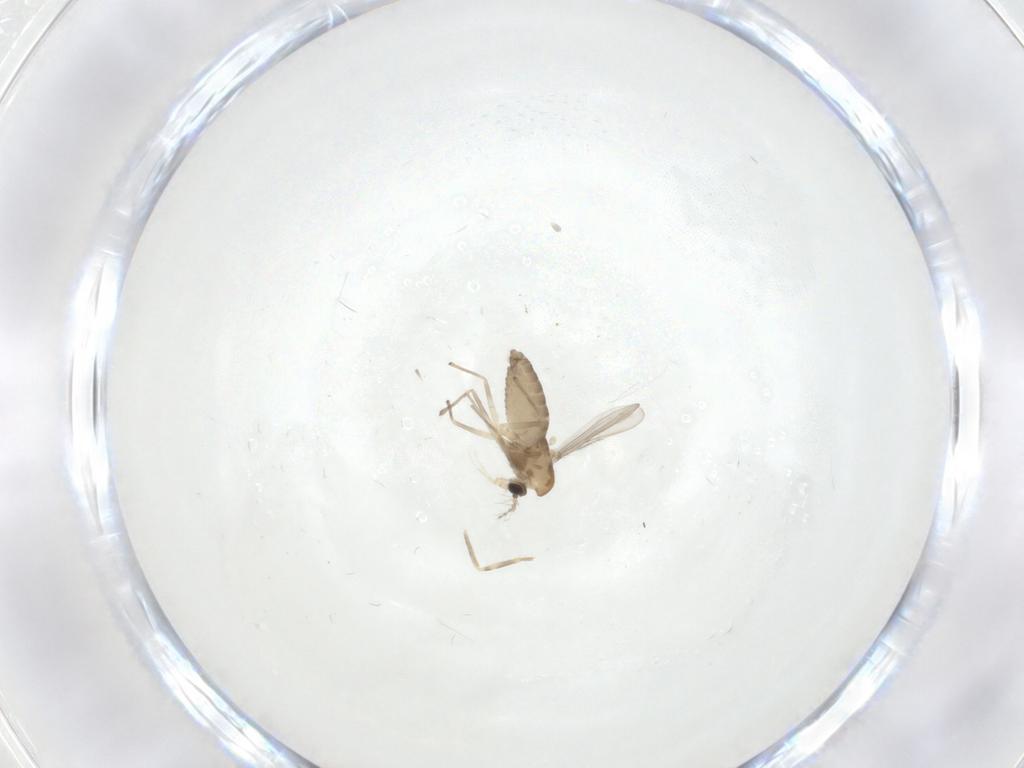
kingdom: Animalia
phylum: Arthropoda
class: Insecta
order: Diptera
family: Chironomidae
